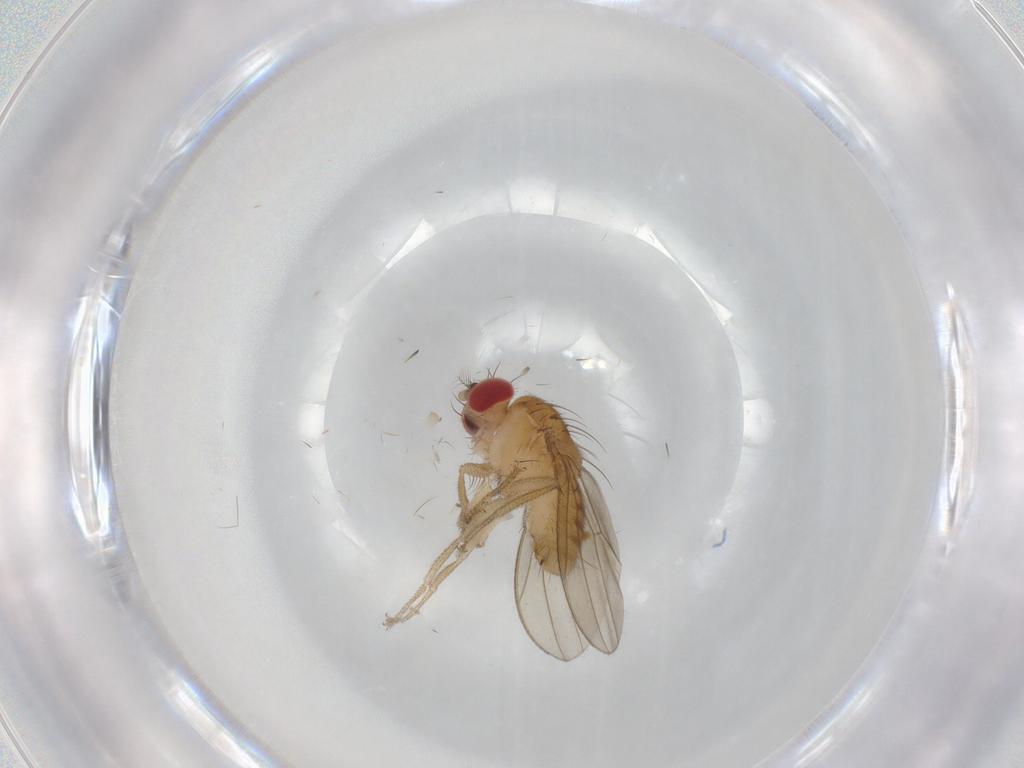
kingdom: Animalia
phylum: Arthropoda
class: Insecta
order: Diptera
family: Drosophilidae
